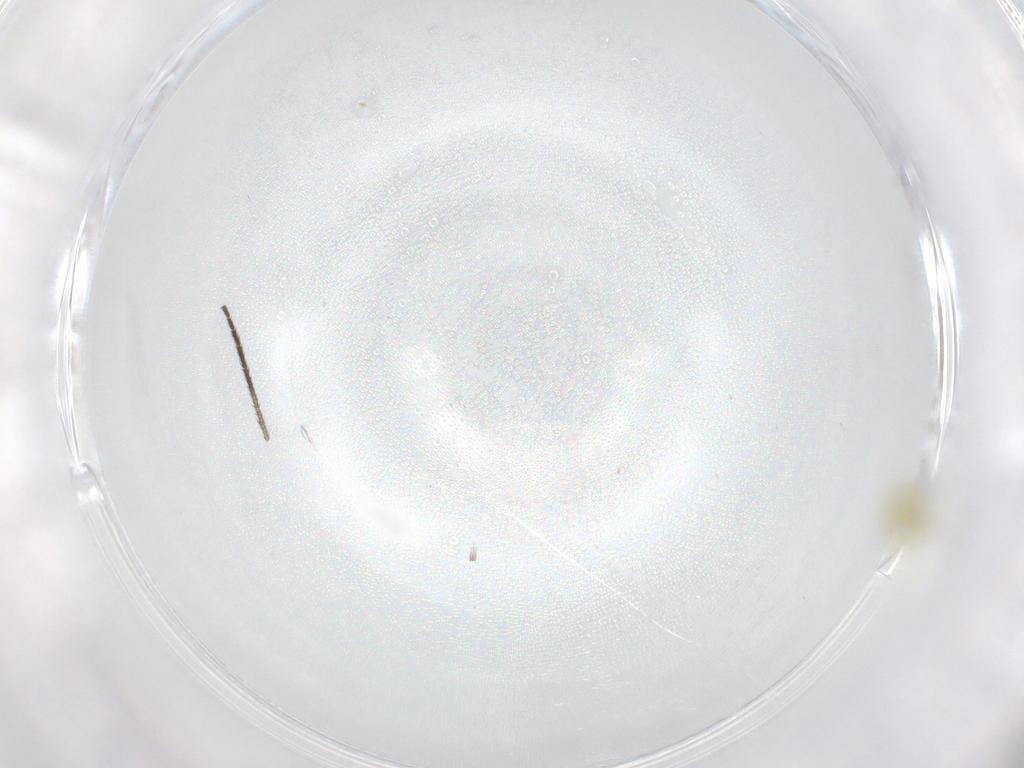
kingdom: Animalia
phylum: Arthropoda
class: Insecta
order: Hemiptera
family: Aleyrodidae
